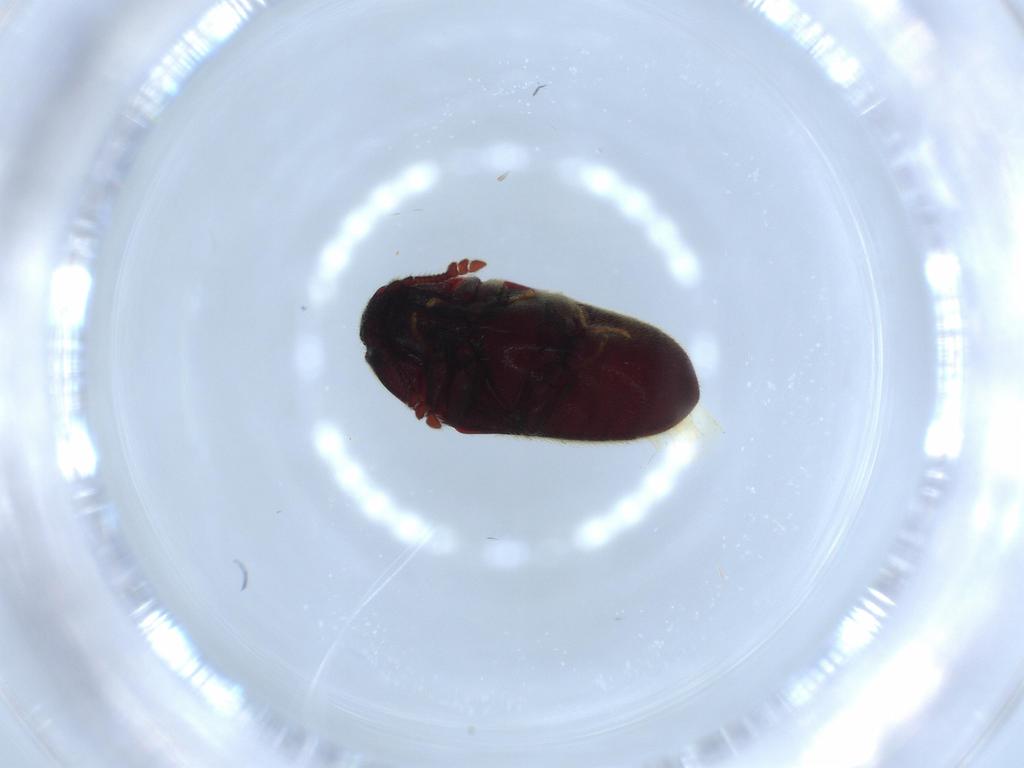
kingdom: Animalia
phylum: Arthropoda
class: Insecta
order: Coleoptera
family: Throscidae
